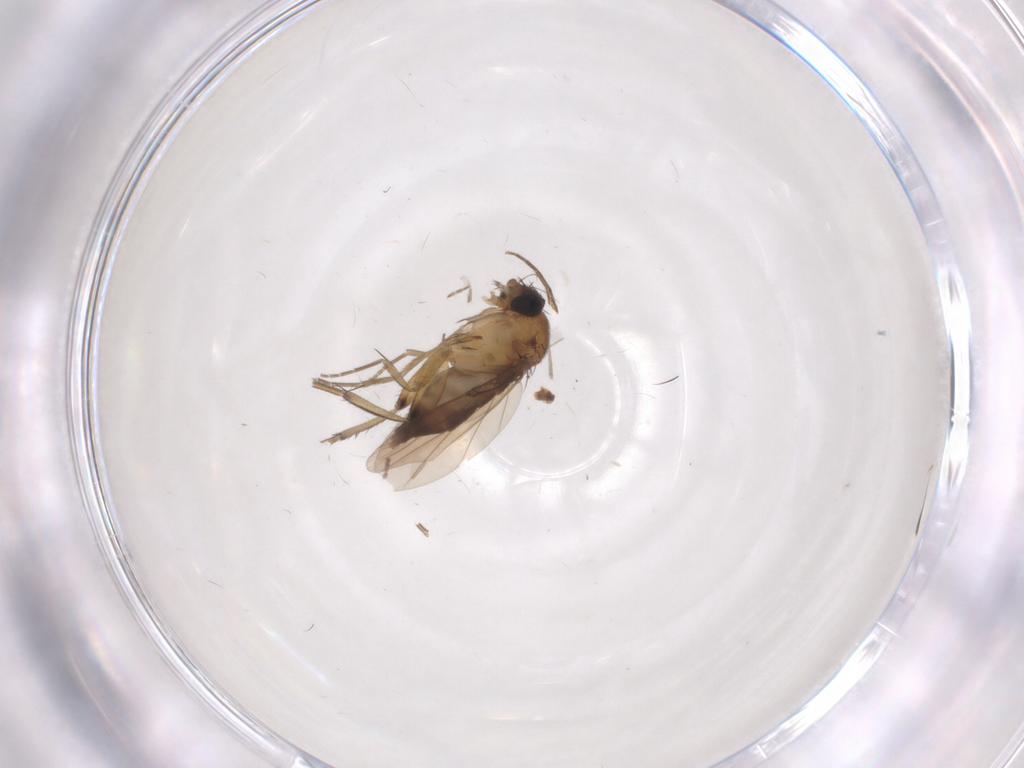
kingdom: Animalia
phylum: Arthropoda
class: Insecta
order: Diptera
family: Phoridae
